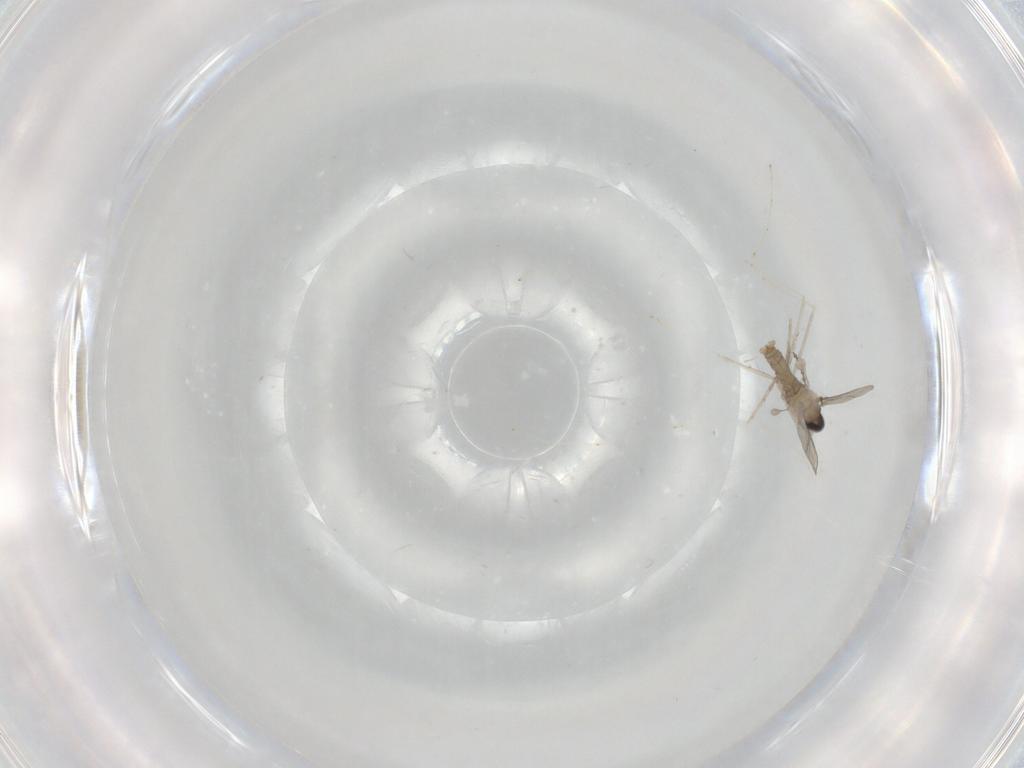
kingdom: Animalia
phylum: Arthropoda
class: Insecta
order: Diptera
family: Cecidomyiidae
